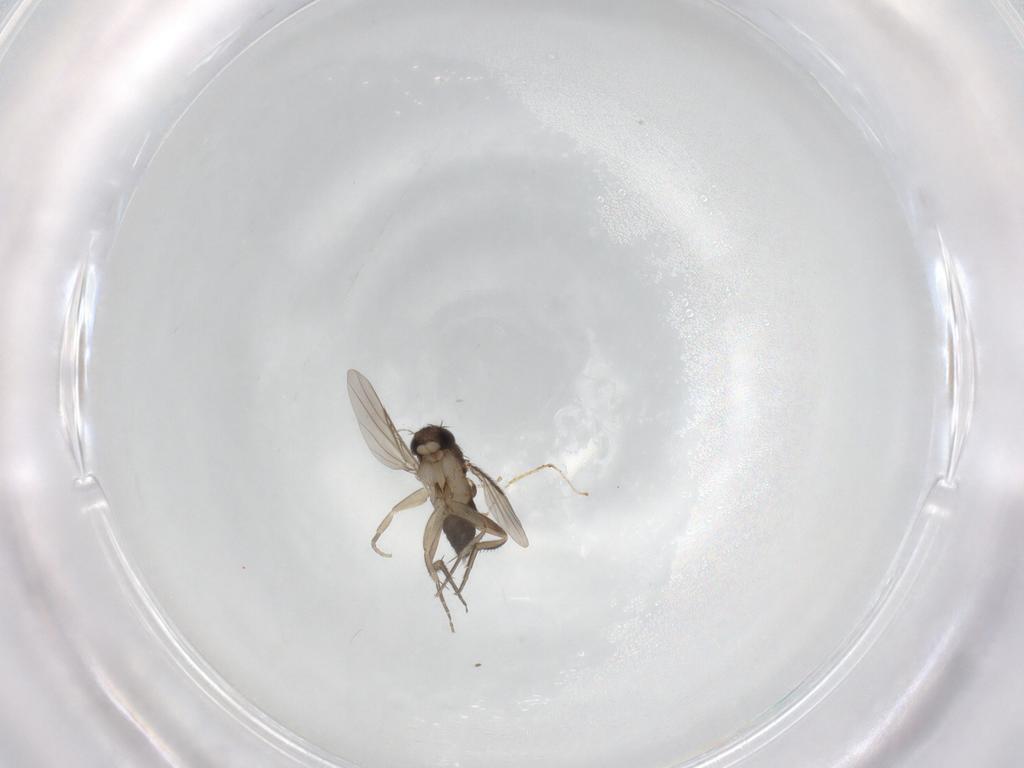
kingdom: Animalia
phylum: Arthropoda
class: Insecta
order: Diptera
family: Phoridae
